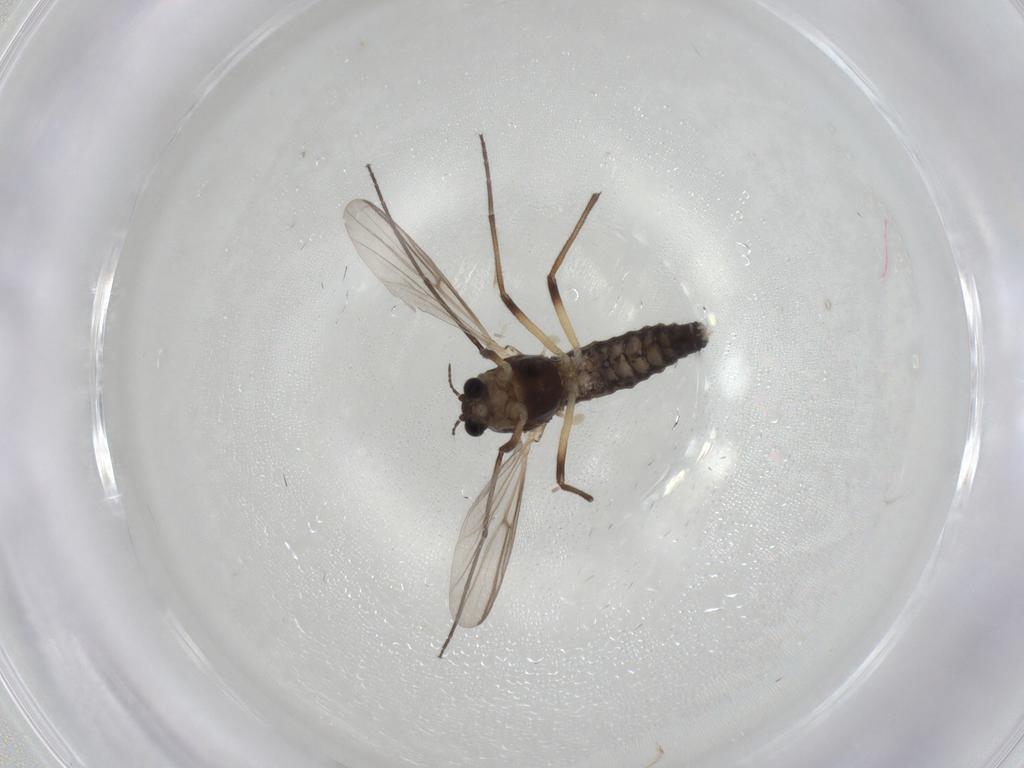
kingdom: Animalia
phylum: Arthropoda
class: Insecta
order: Diptera
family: Chironomidae
